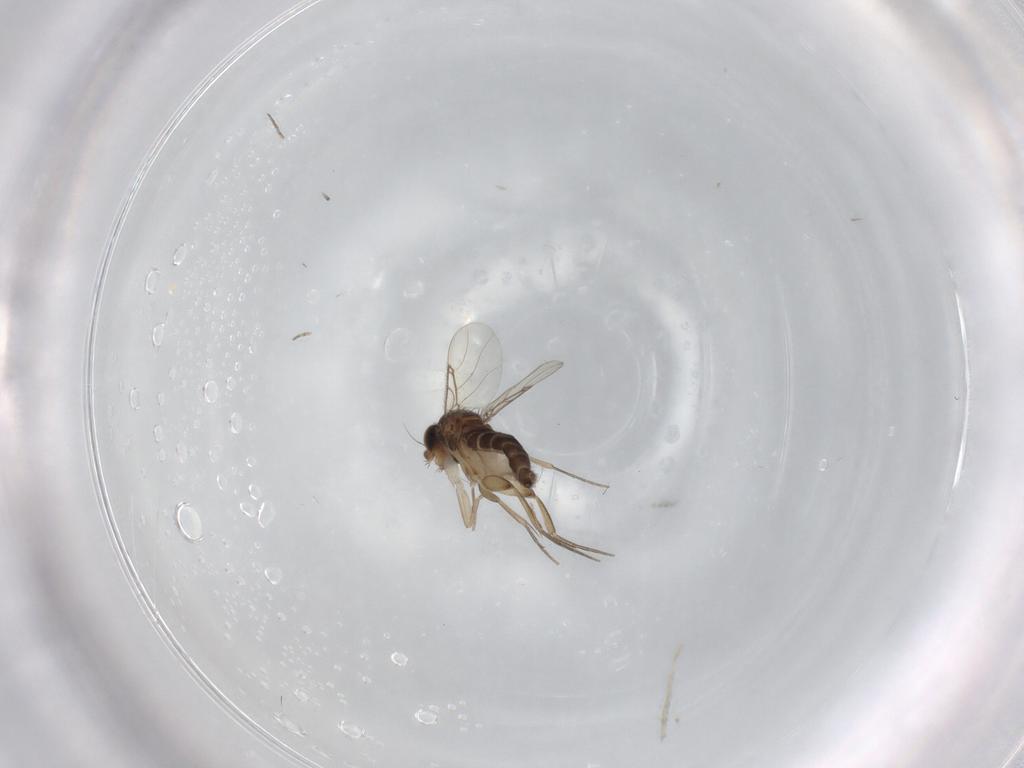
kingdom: Animalia
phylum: Arthropoda
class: Insecta
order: Diptera
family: Phoridae
